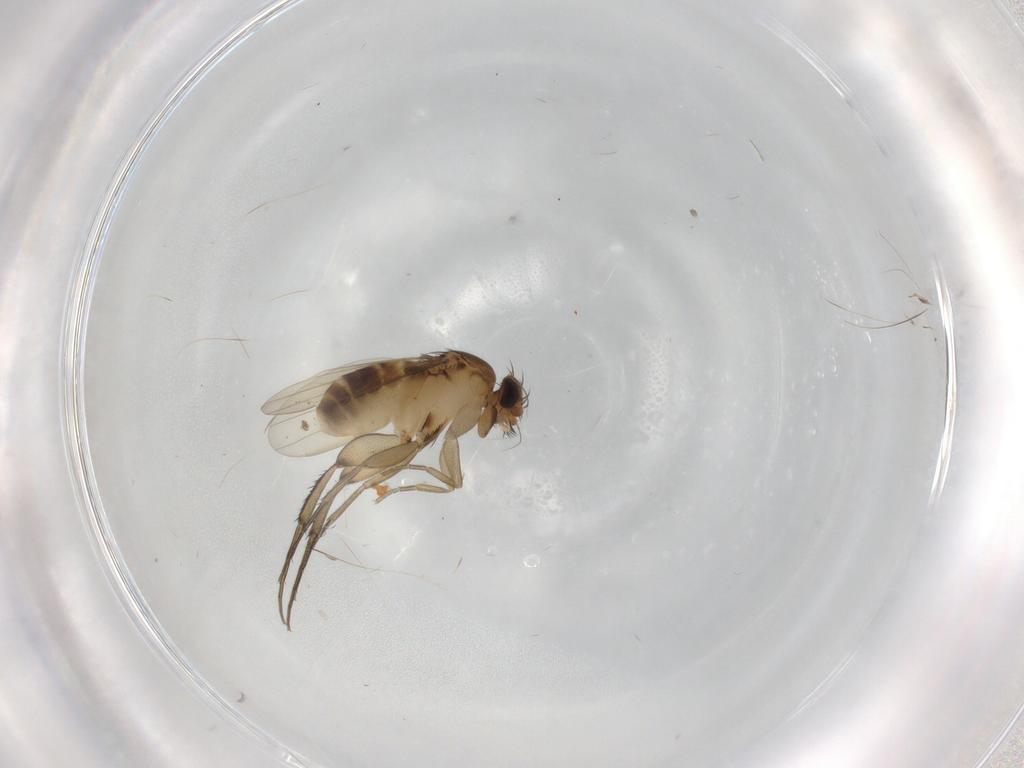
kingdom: Animalia
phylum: Arthropoda
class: Insecta
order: Diptera
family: Phoridae
